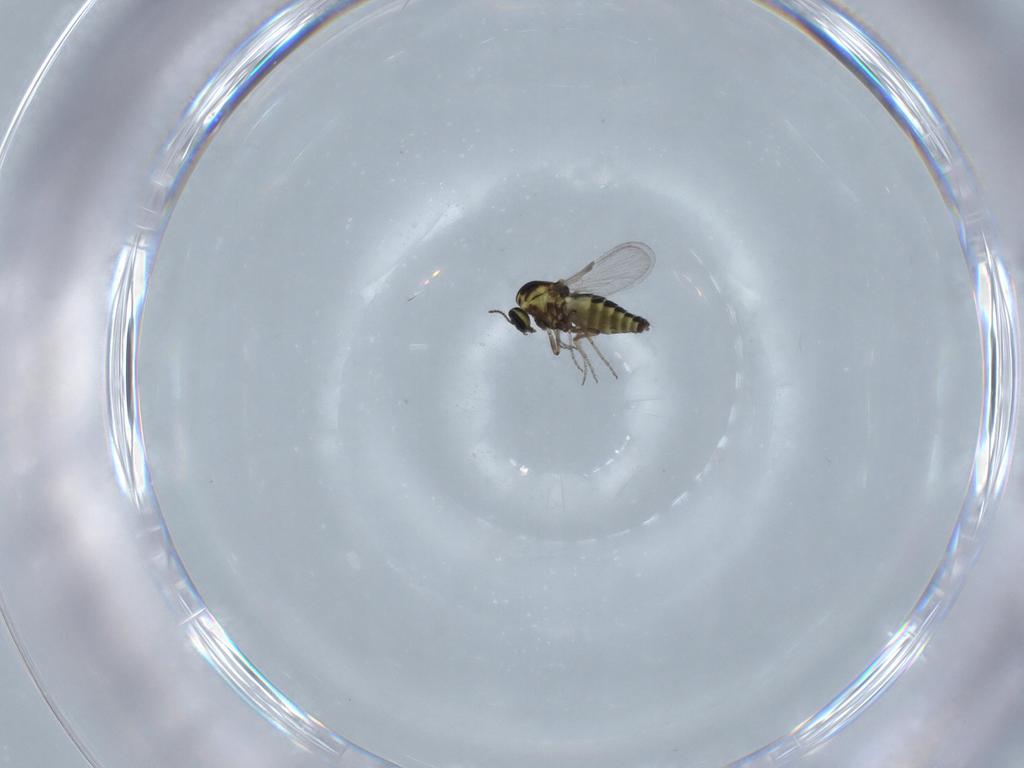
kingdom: Animalia
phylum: Arthropoda
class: Insecta
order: Diptera
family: Ceratopogonidae
